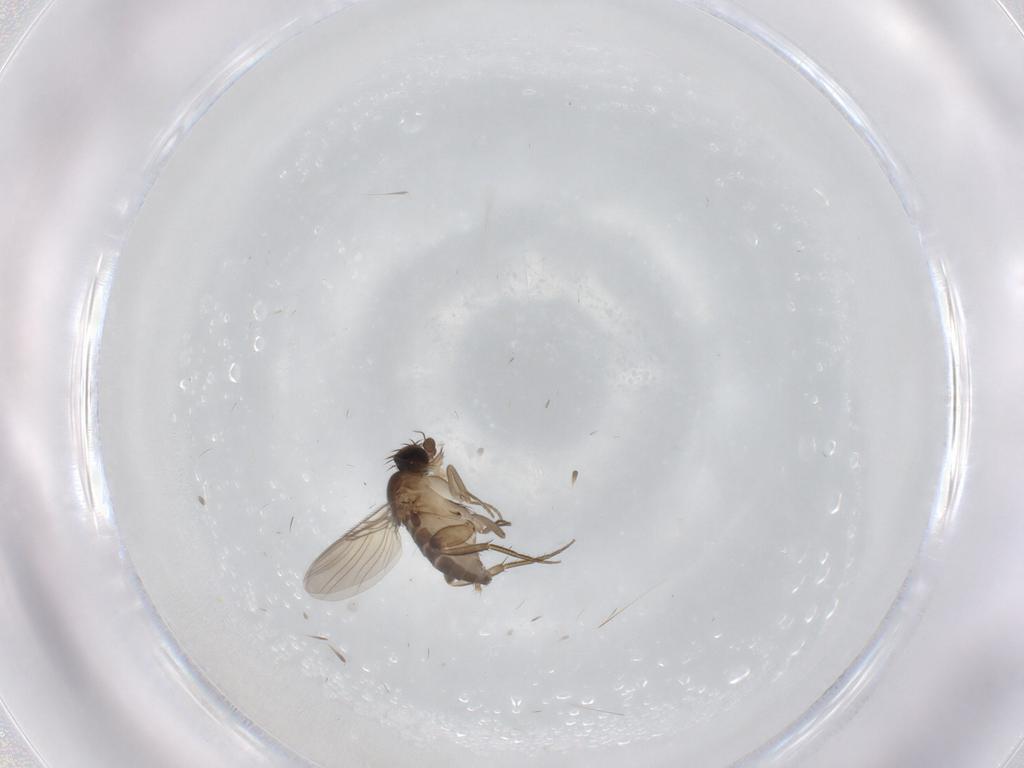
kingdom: Animalia
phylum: Arthropoda
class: Insecta
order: Diptera
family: Phoridae
